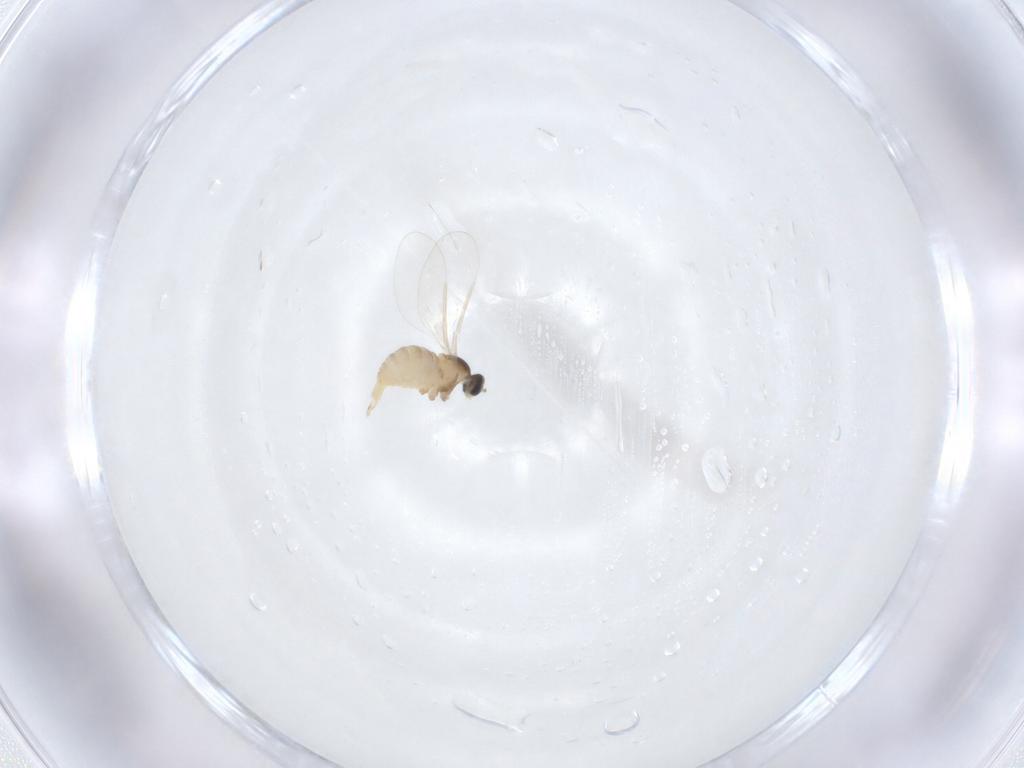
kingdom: Animalia
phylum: Arthropoda
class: Insecta
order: Diptera
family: Cecidomyiidae
